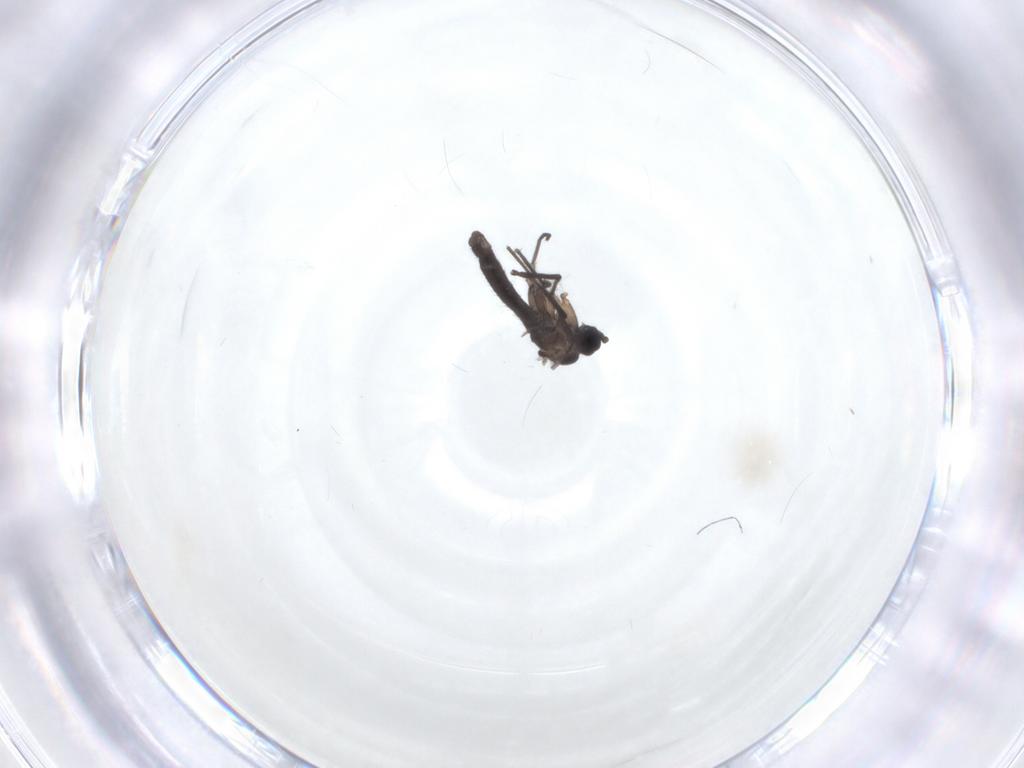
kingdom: Animalia
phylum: Arthropoda
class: Insecta
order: Diptera
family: Sciaridae
